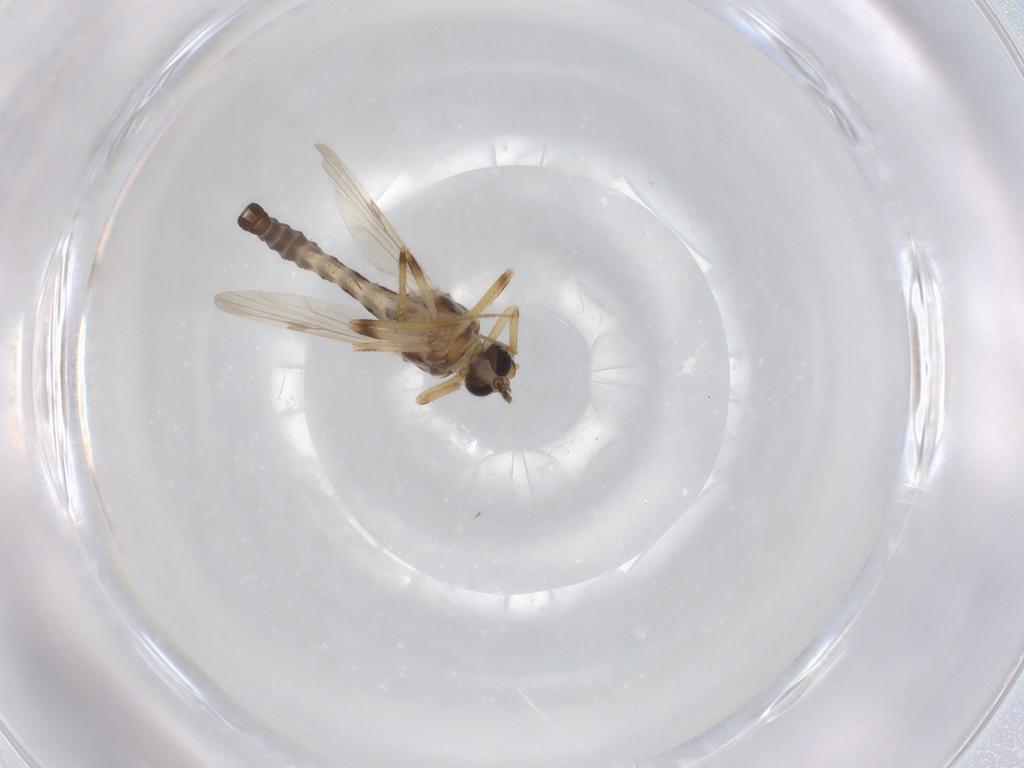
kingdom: Animalia
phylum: Arthropoda
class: Insecta
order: Diptera
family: Ceratopogonidae
